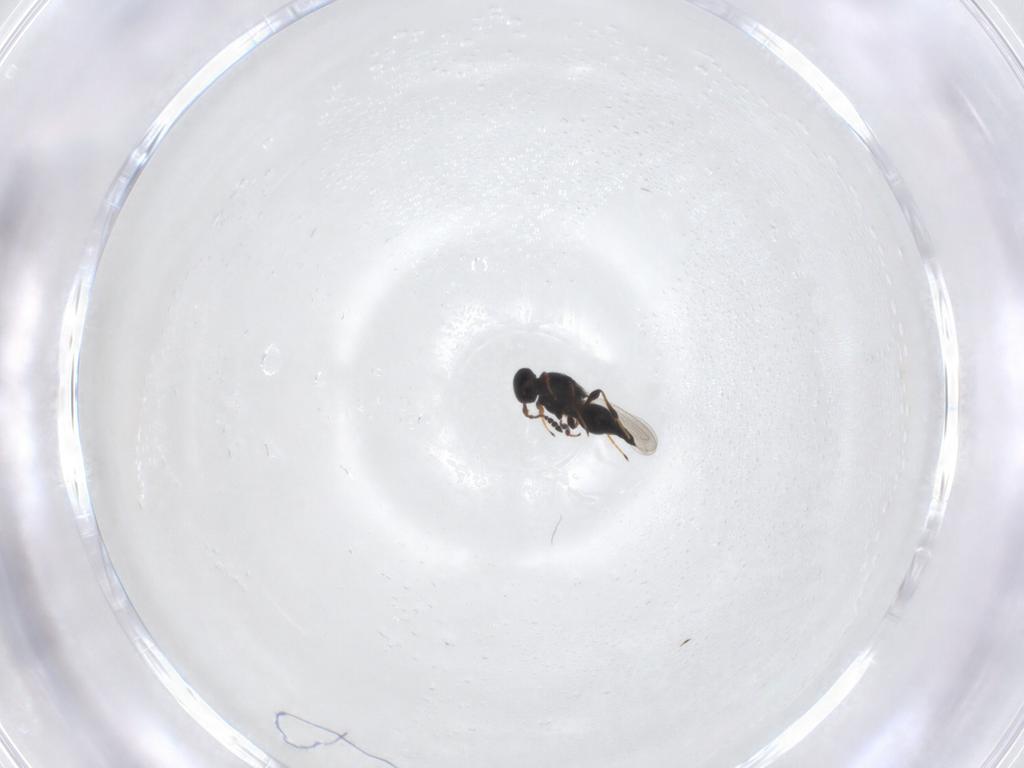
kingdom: Animalia
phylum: Arthropoda
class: Insecta
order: Hymenoptera
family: Platygastridae
